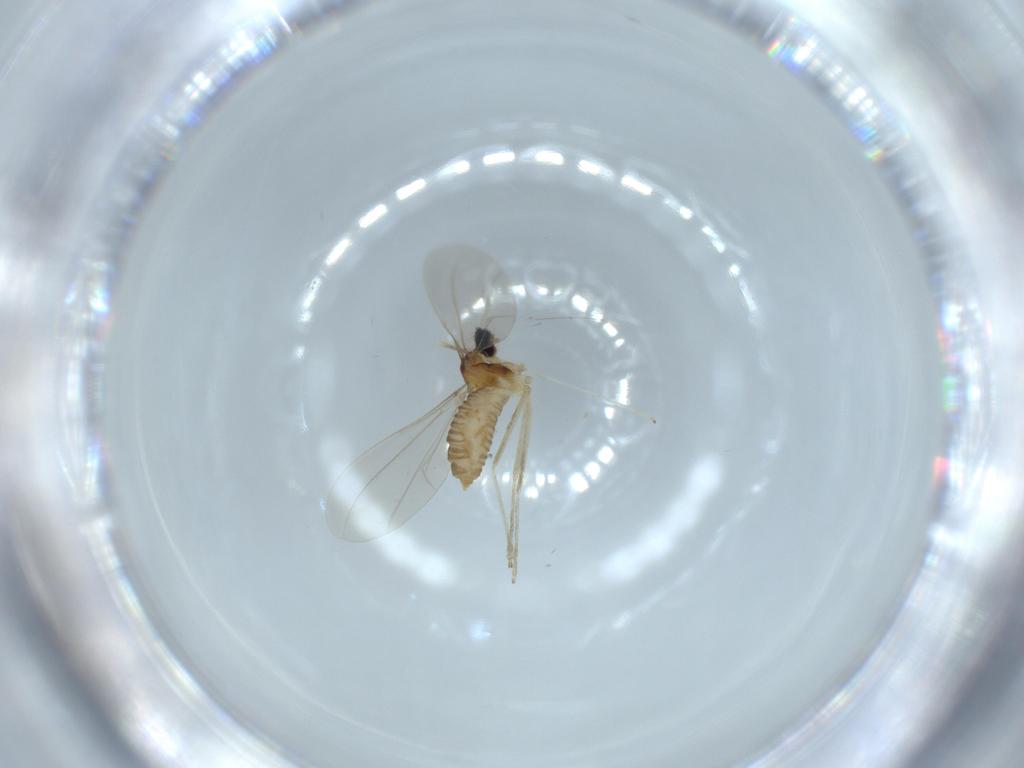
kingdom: Animalia
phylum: Arthropoda
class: Insecta
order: Diptera
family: Cecidomyiidae
